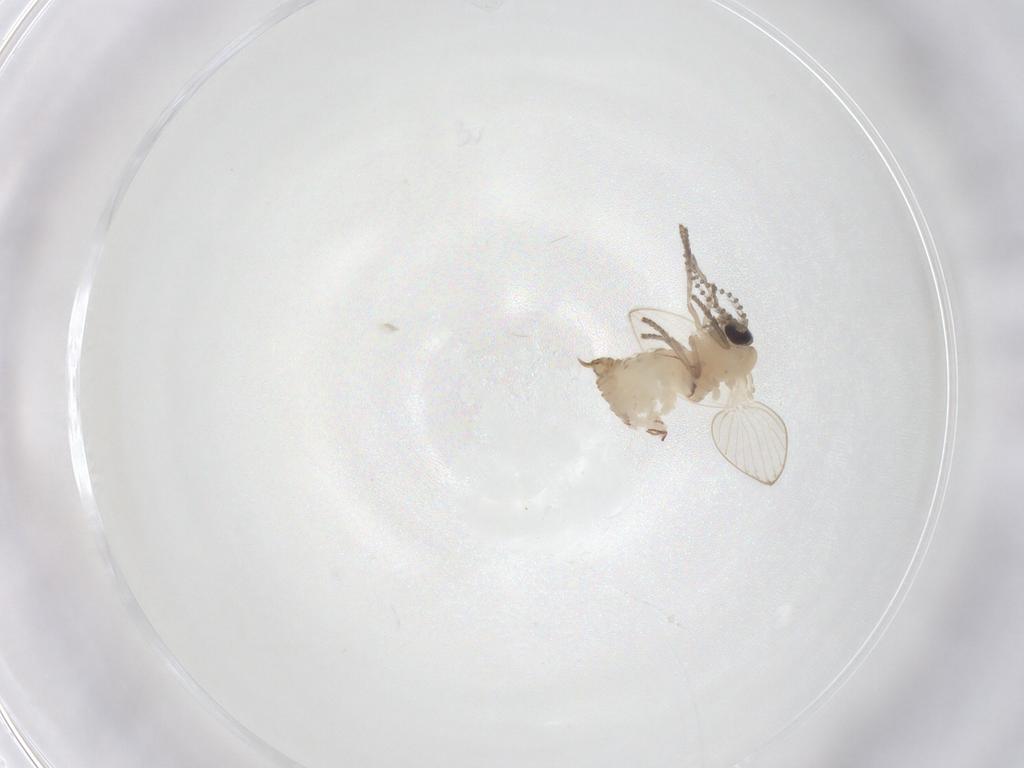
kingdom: Animalia
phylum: Arthropoda
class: Insecta
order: Diptera
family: Psychodidae
